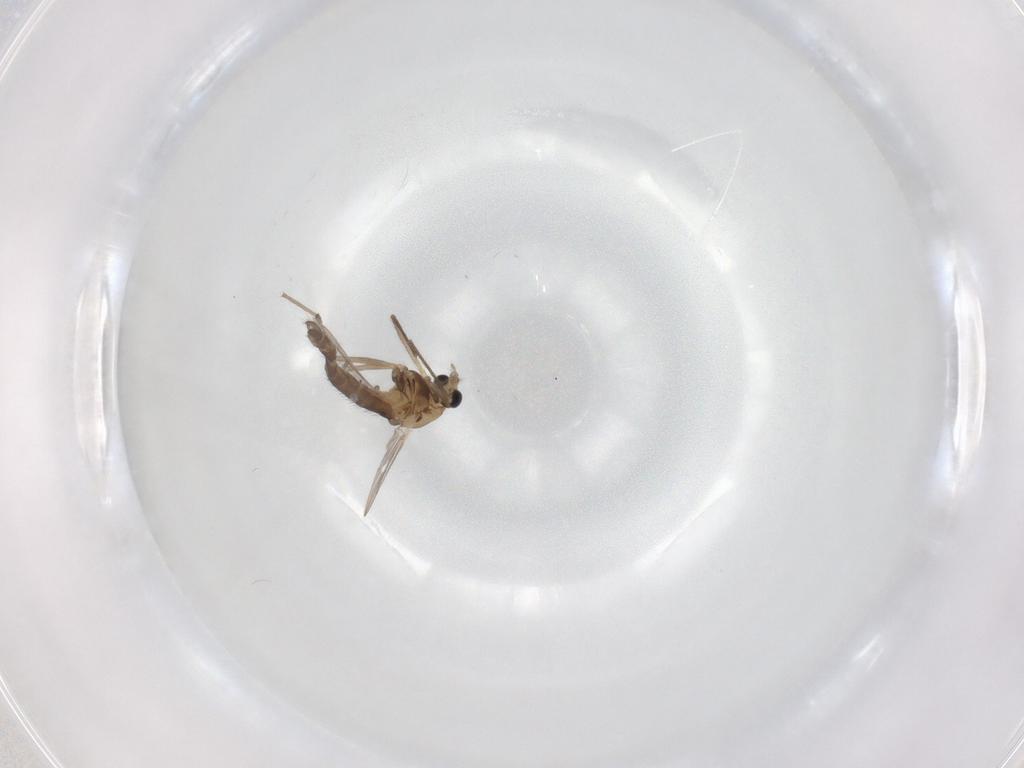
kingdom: Animalia
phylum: Arthropoda
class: Insecta
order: Diptera
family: Chironomidae
